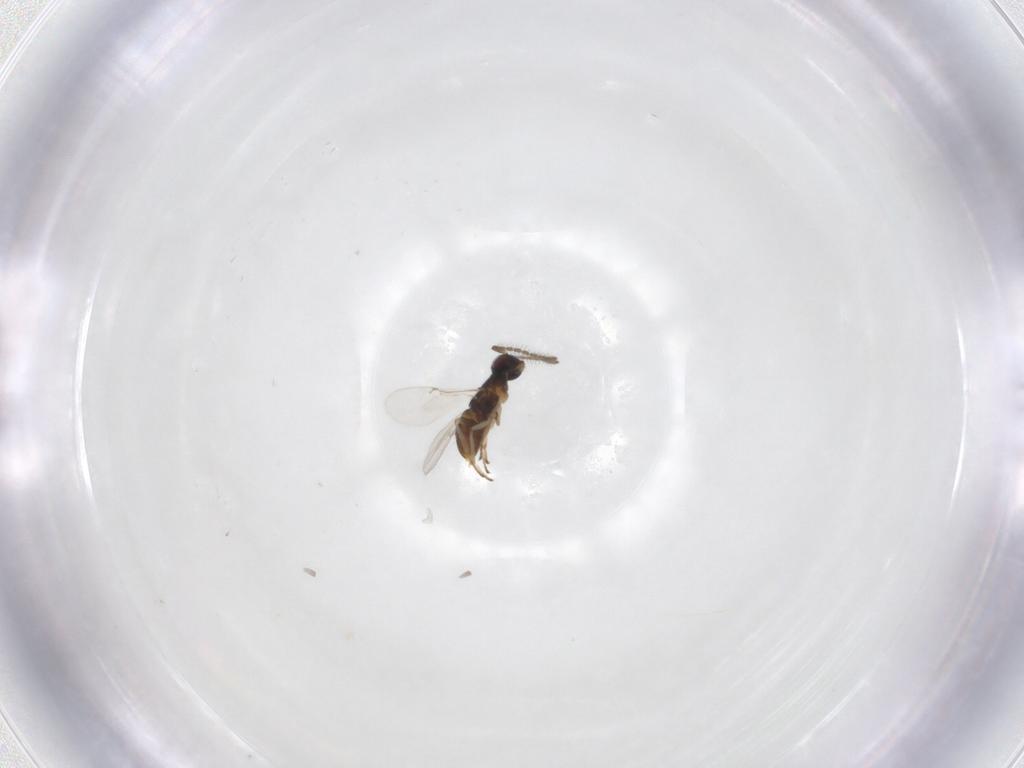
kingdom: Animalia
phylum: Arthropoda
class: Insecta
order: Hymenoptera
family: Encyrtidae
